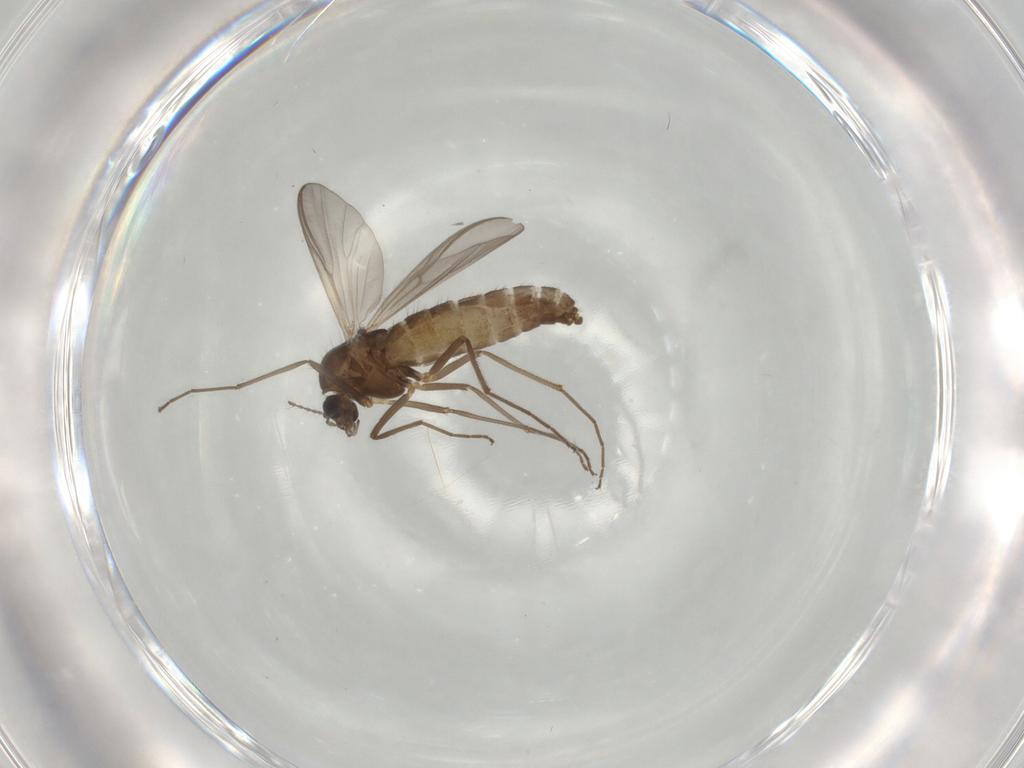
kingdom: Animalia
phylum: Arthropoda
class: Insecta
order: Diptera
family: Chironomidae
